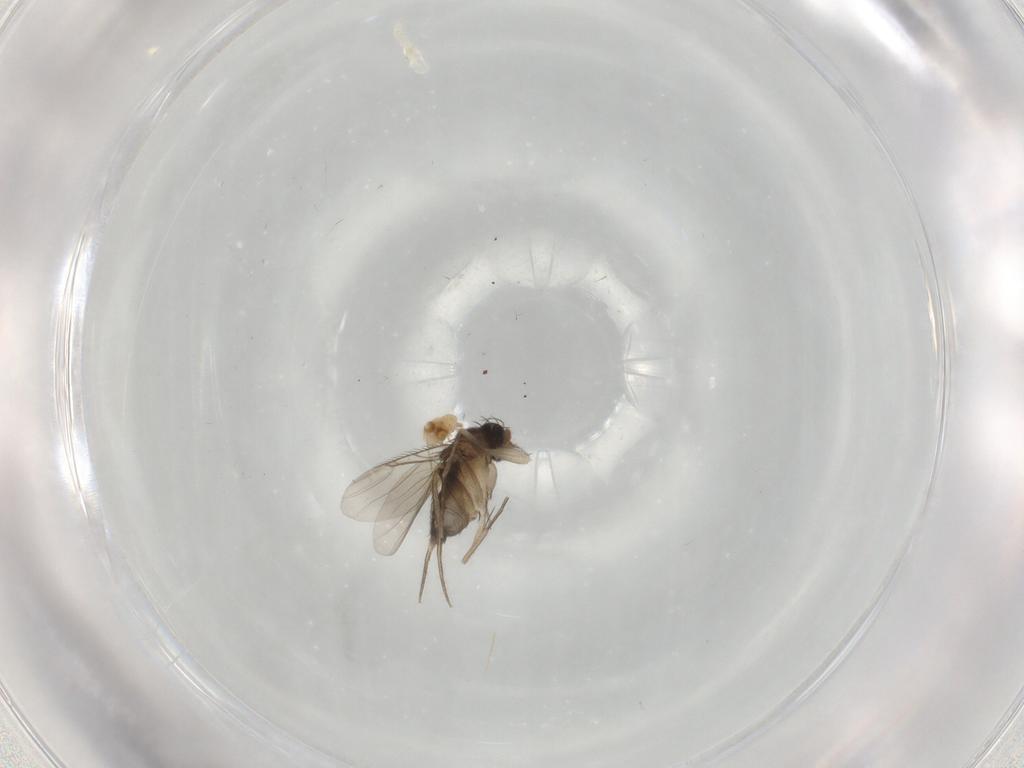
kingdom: Animalia
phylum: Arthropoda
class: Insecta
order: Diptera
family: Phoridae
